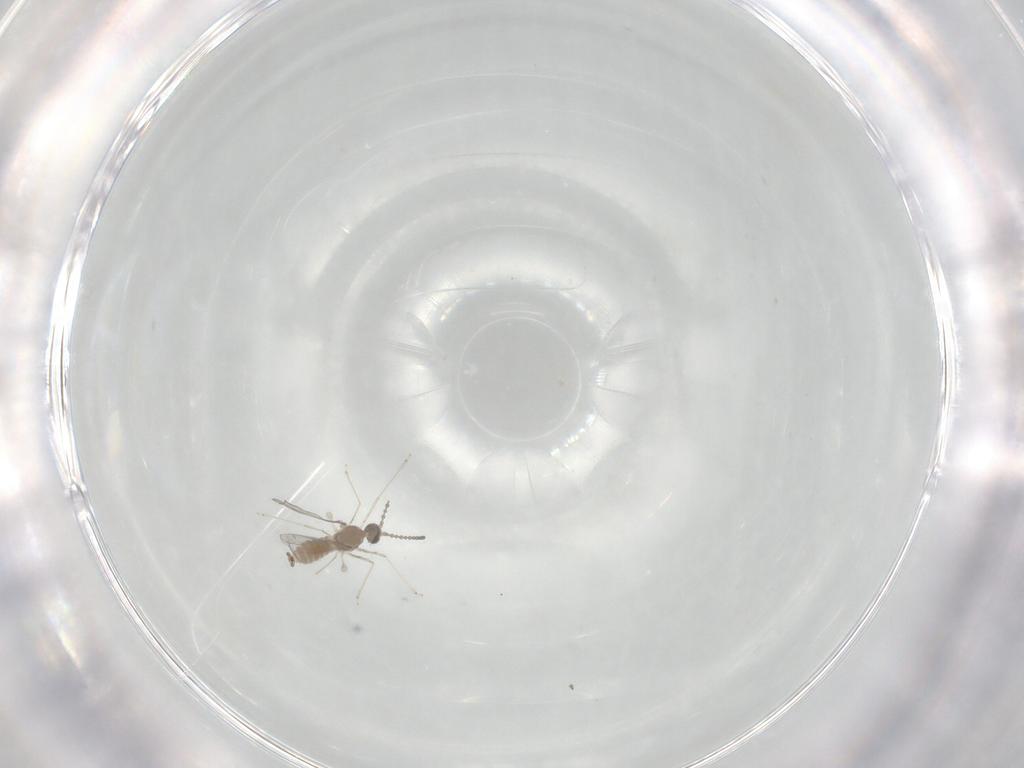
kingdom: Animalia
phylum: Arthropoda
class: Insecta
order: Diptera
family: Cecidomyiidae
